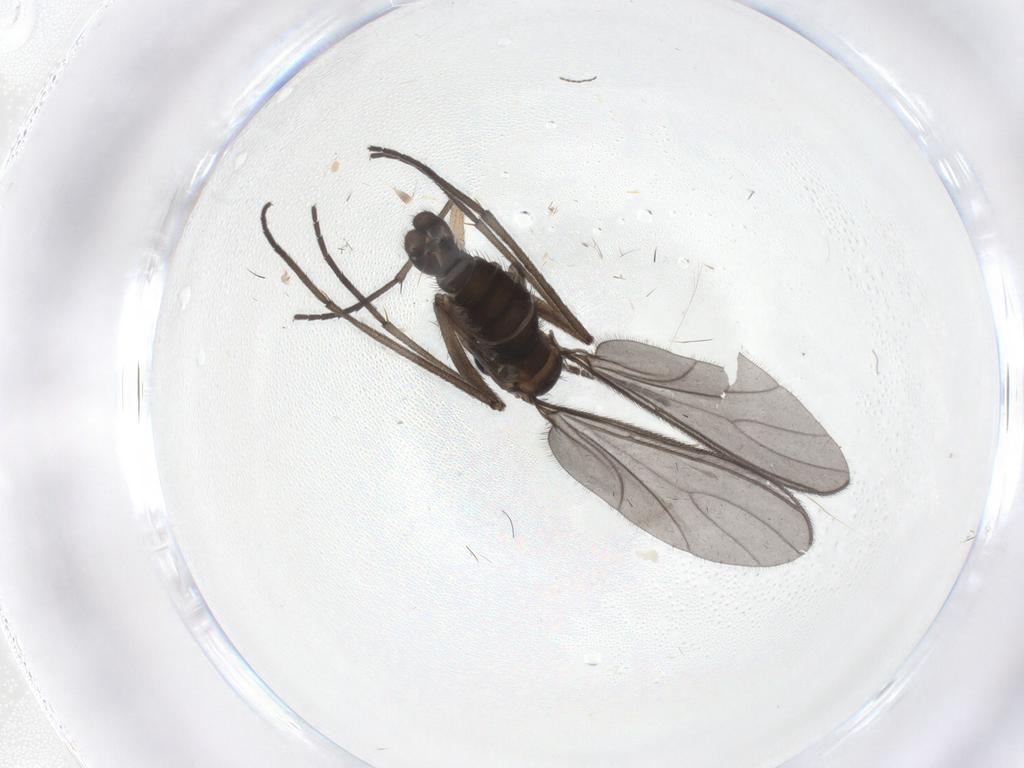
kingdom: Animalia
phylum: Arthropoda
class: Insecta
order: Diptera
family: Sciaridae
